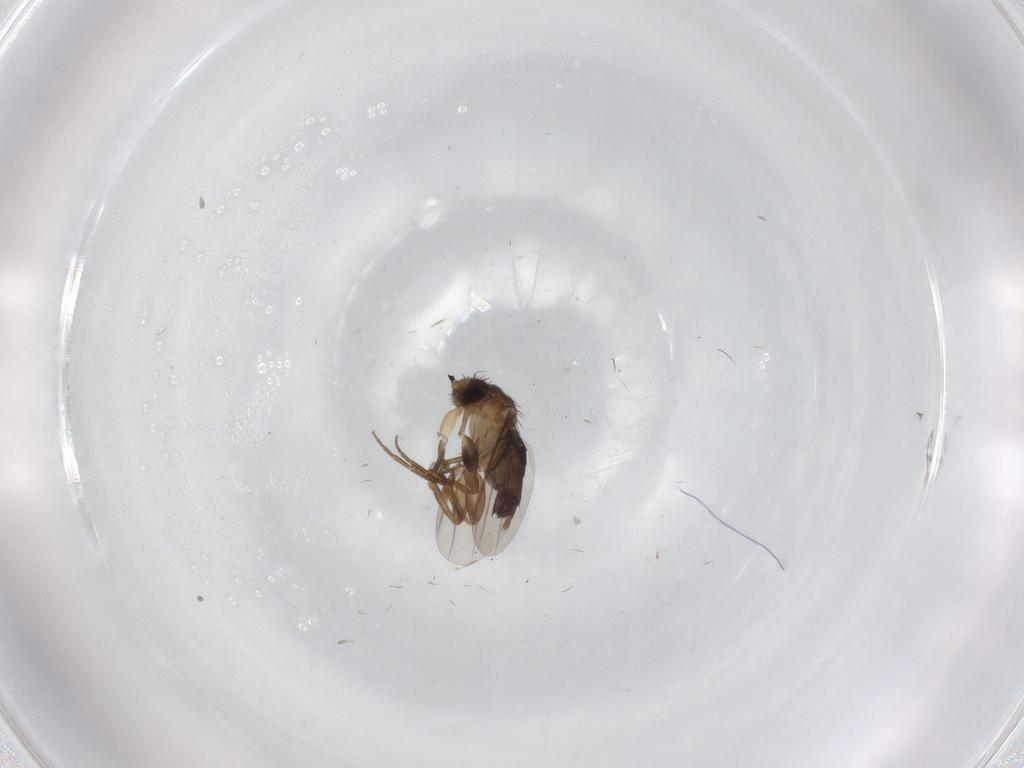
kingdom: Animalia
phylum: Arthropoda
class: Insecta
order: Diptera
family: Phoridae
